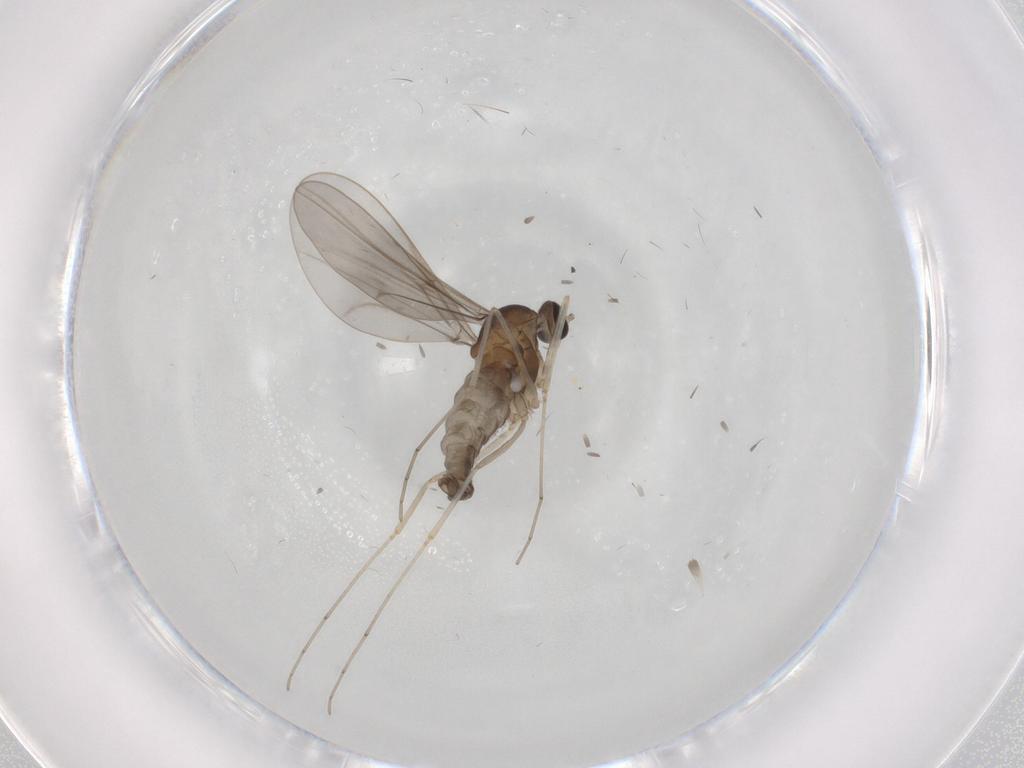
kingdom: Animalia
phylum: Arthropoda
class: Insecta
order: Diptera
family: Cecidomyiidae
